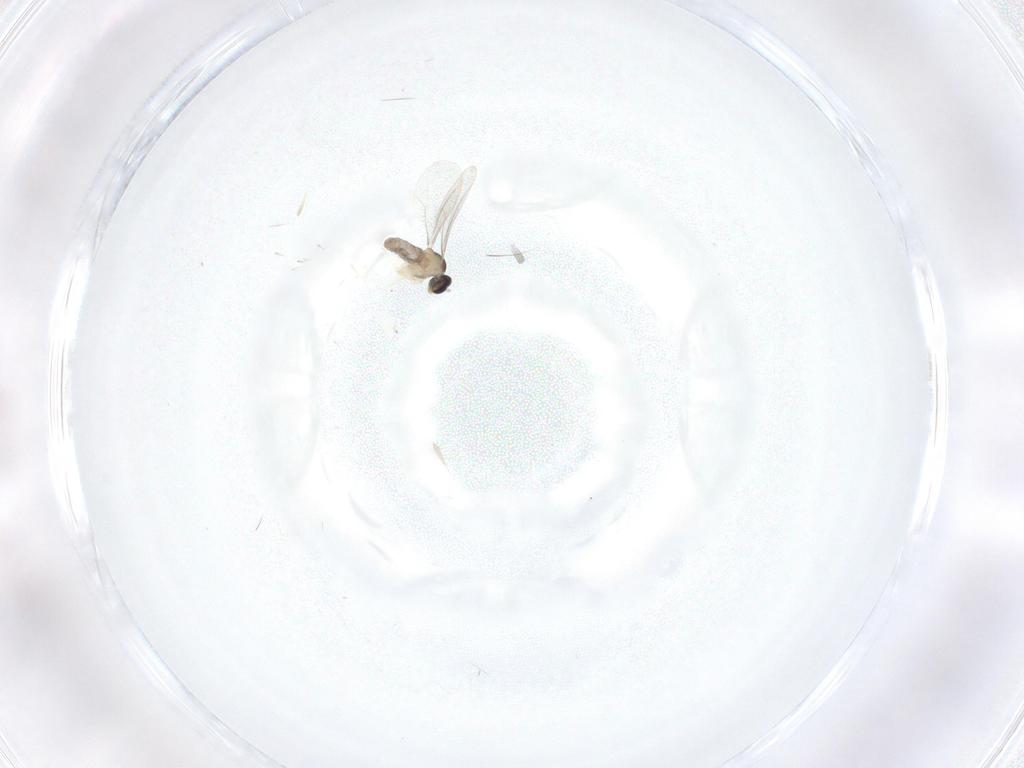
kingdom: Animalia
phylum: Arthropoda
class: Insecta
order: Diptera
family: Cecidomyiidae
